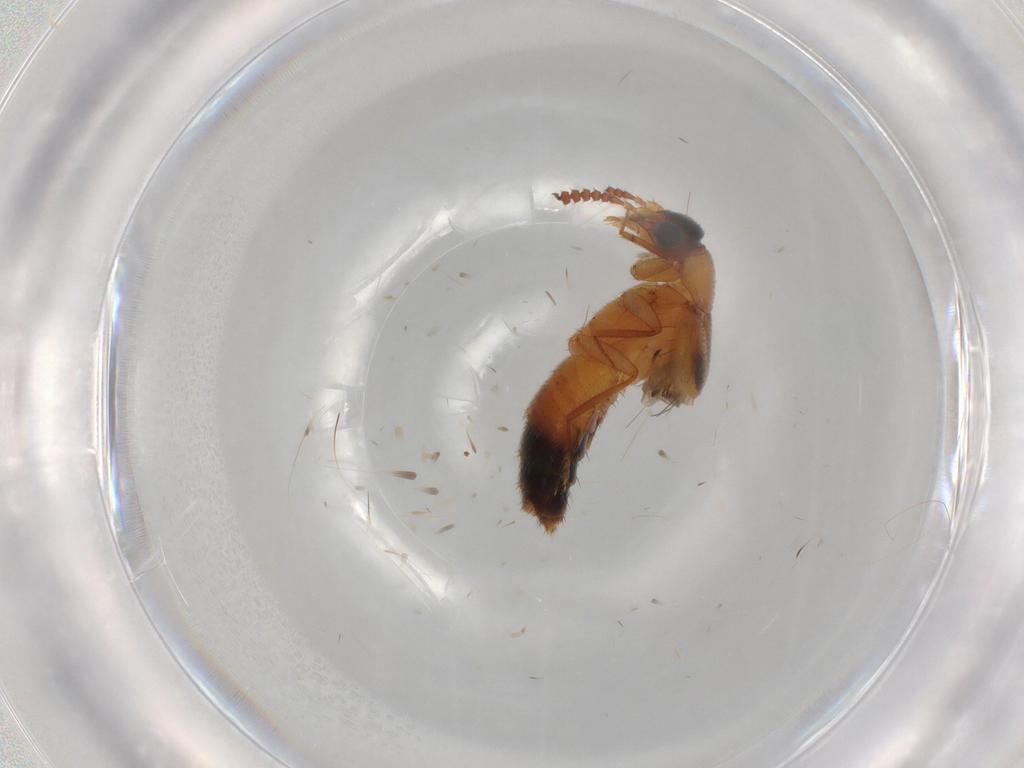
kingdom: Animalia
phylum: Arthropoda
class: Insecta
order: Coleoptera
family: Staphylinidae
